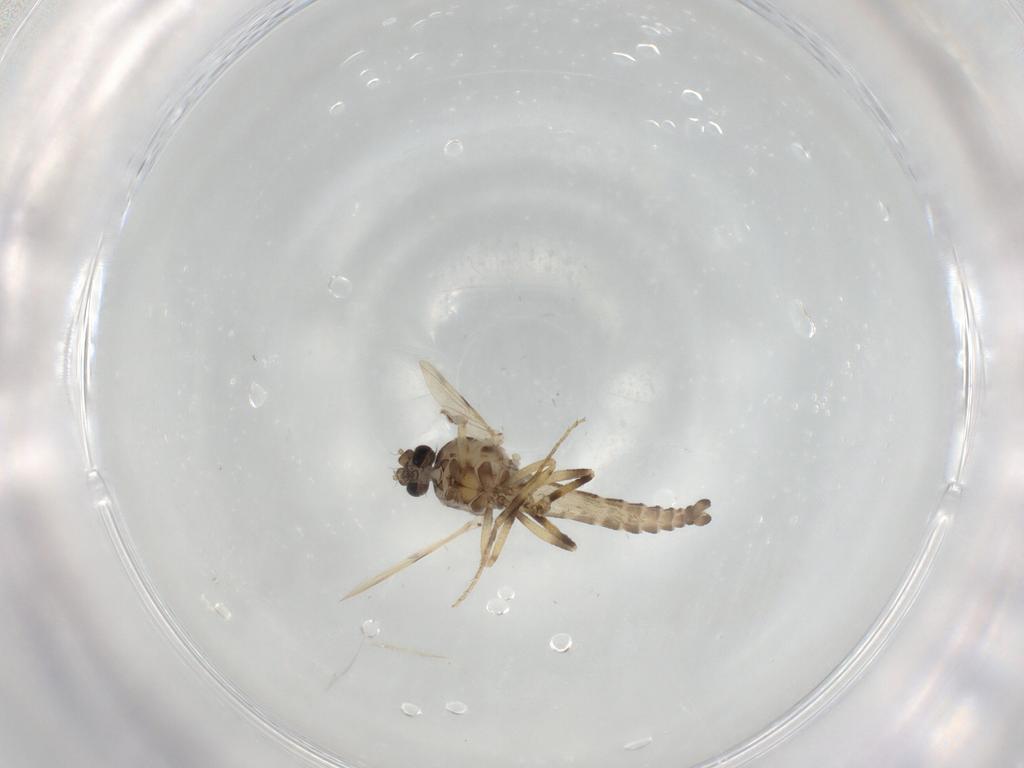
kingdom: Animalia
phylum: Arthropoda
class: Insecta
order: Diptera
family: Ceratopogonidae
